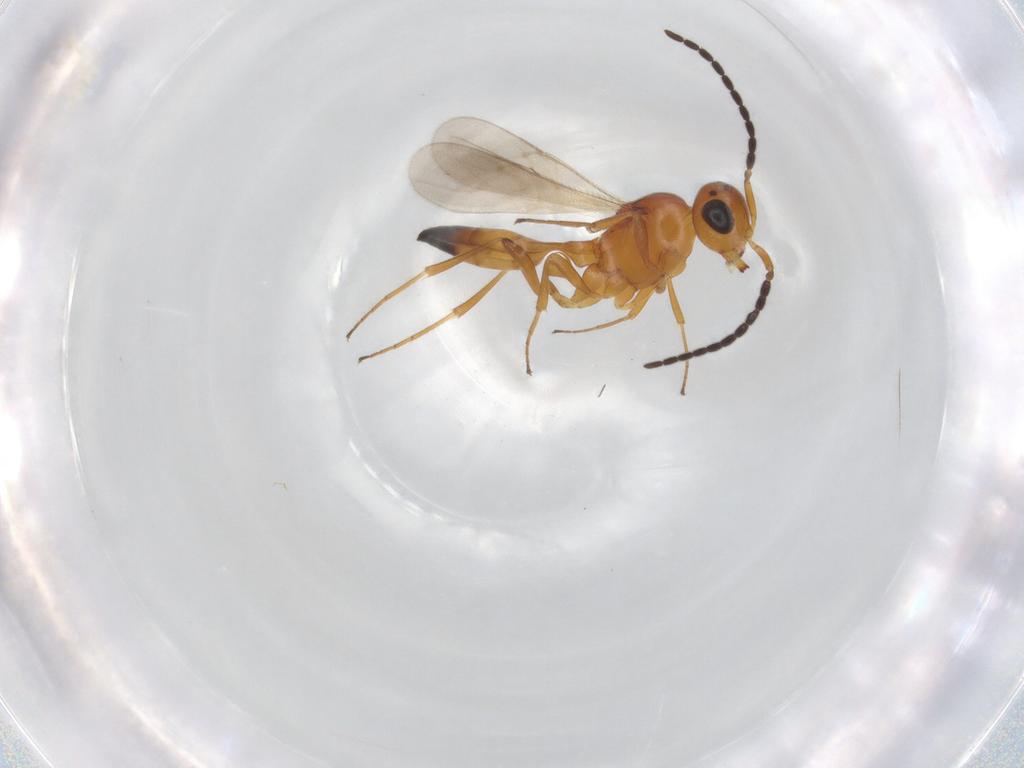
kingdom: Animalia
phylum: Arthropoda
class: Insecta
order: Hymenoptera
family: Scelionidae
